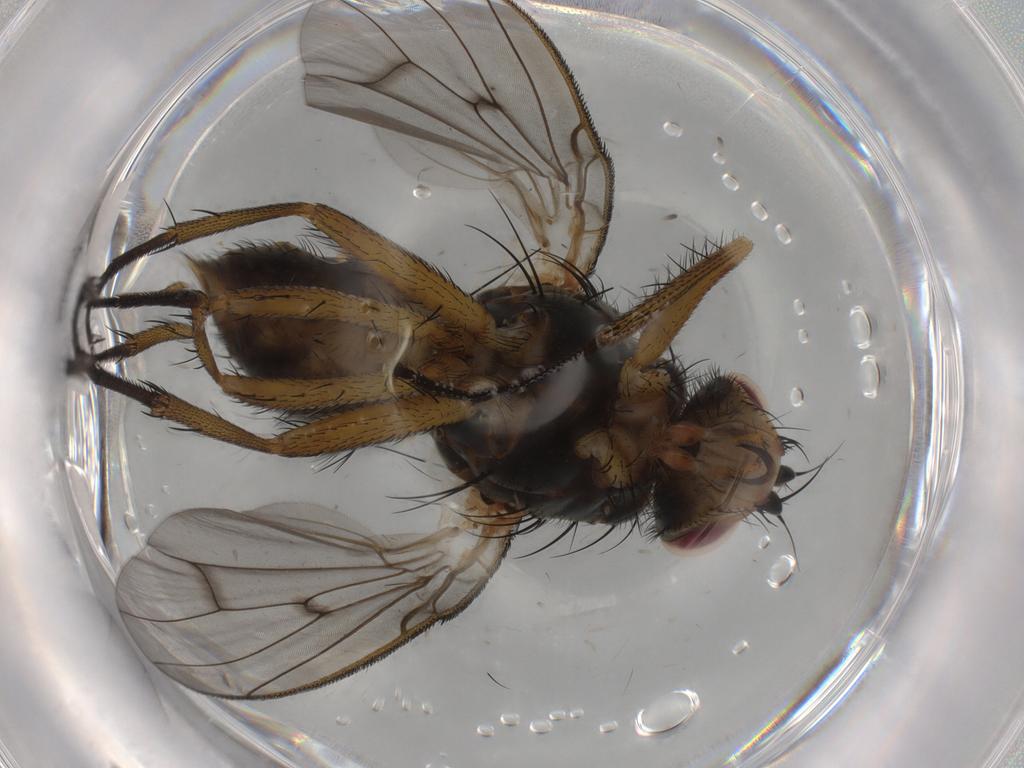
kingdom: Animalia
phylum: Arthropoda
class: Insecta
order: Diptera
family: Anthomyiidae
